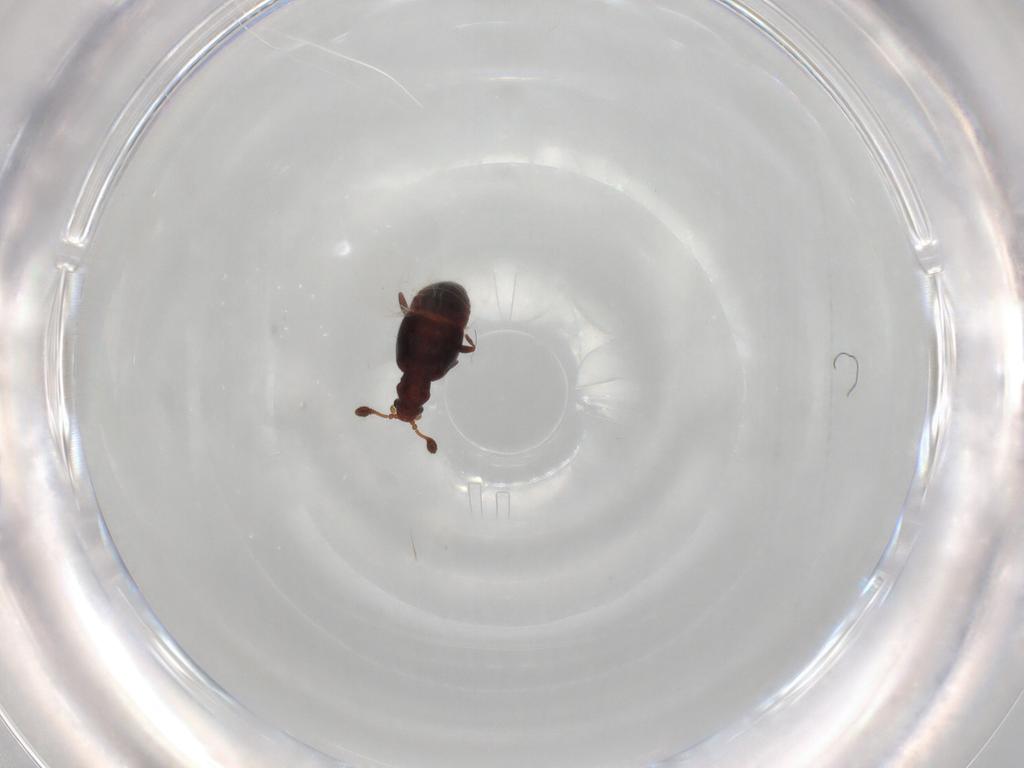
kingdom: Animalia
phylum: Arthropoda
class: Insecta
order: Coleoptera
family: Staphylinidae
